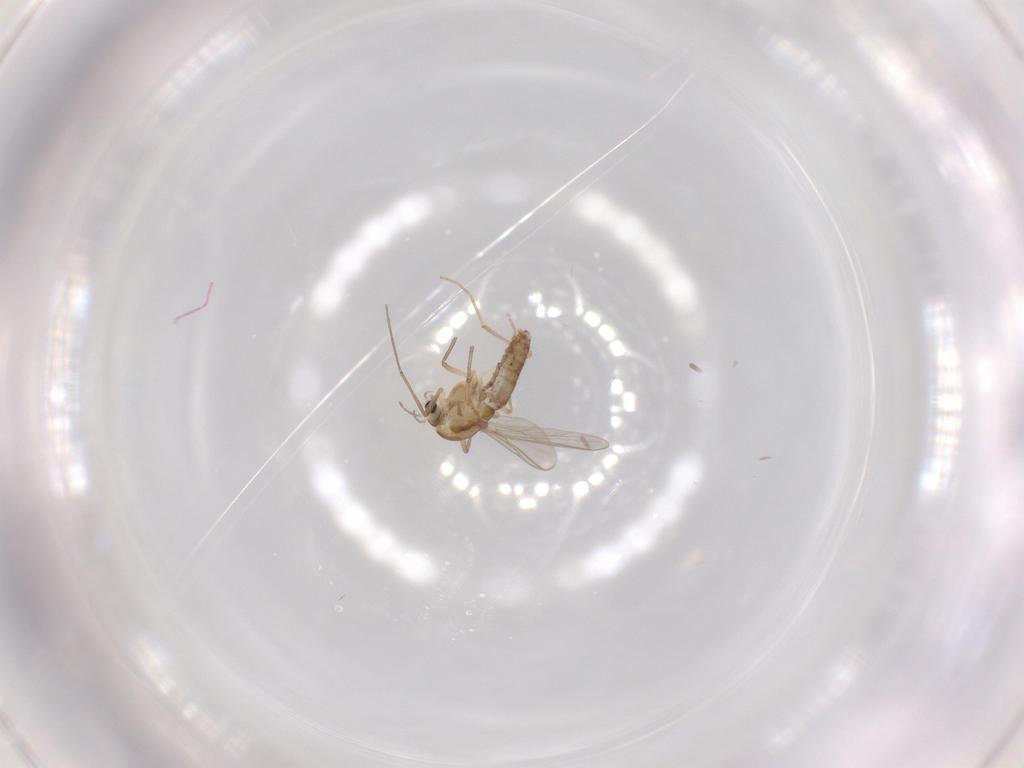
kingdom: Animalia
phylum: Arthropoda
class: Insecta
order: Diptera
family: Chironomidae
